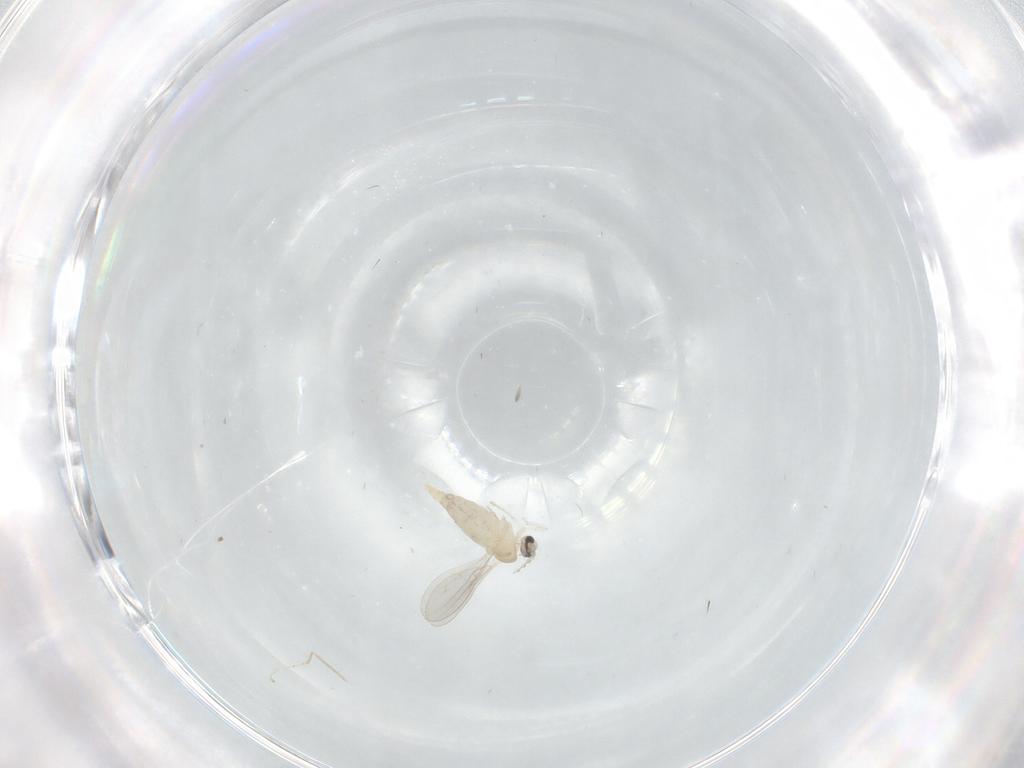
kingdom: Animalia
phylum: Arthropoda
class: Insecta
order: Diptera
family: Cecidomyiidae
